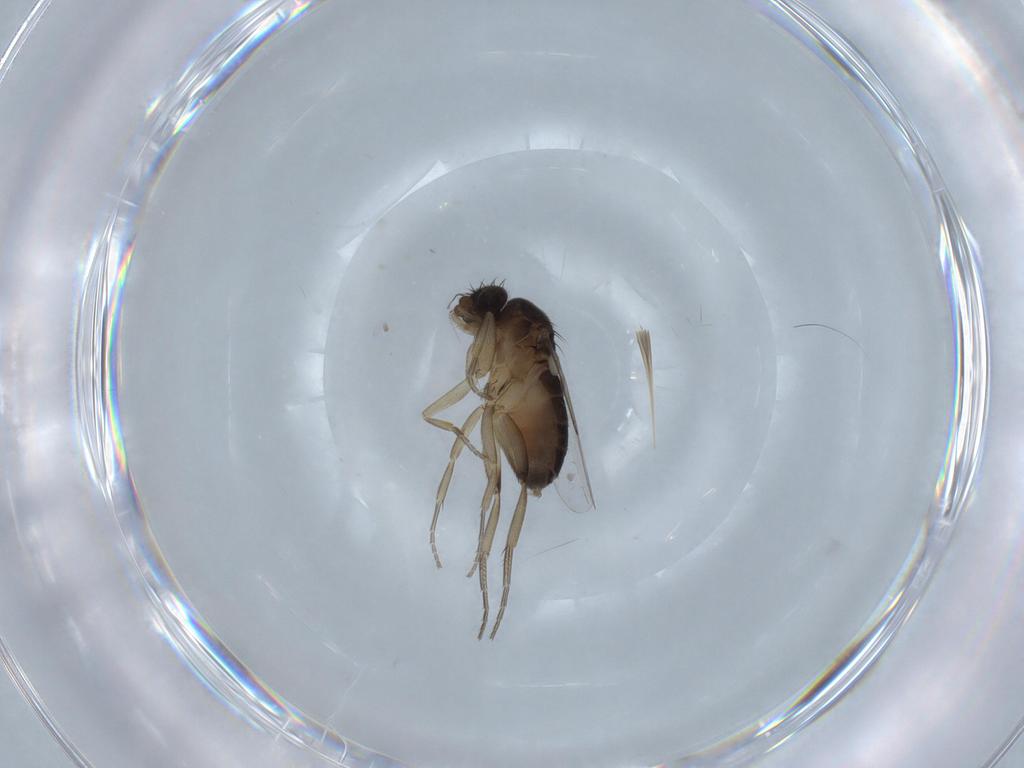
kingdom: Animalia
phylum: Arthropoda
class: Insecta
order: Diptera
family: Phoridae
